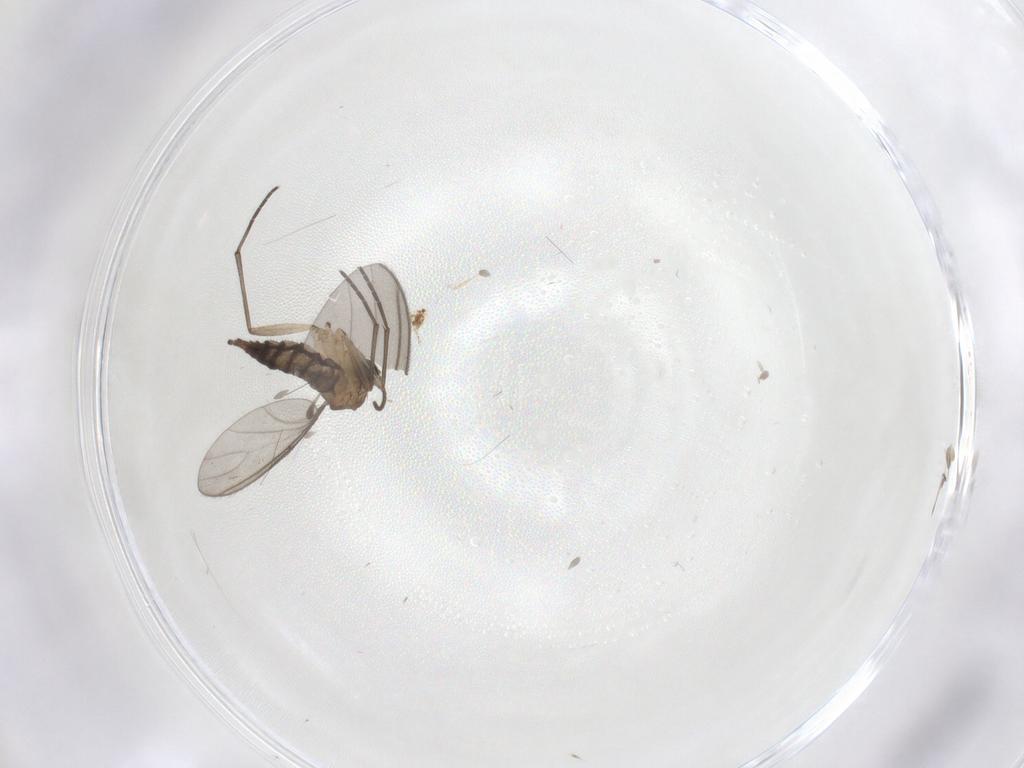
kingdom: Animalia
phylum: Arthropoda
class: Insecta
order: Diptera
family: Sciaridae
